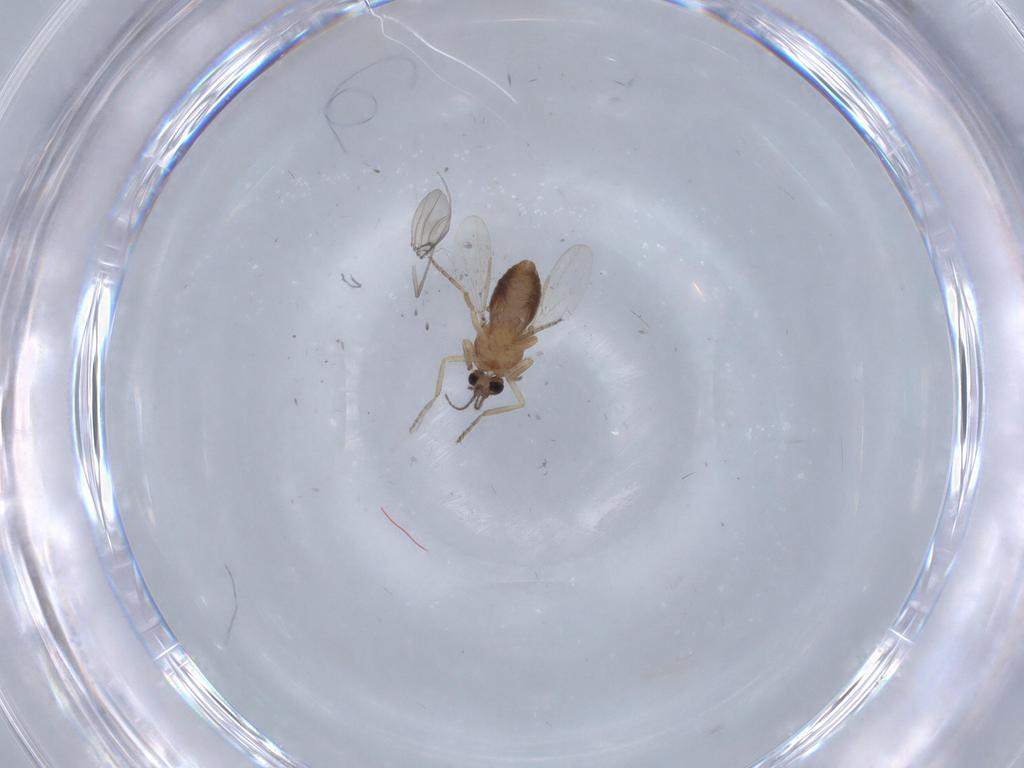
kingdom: Animalia
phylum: Arthropoda
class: Insecta
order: Diptera
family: Ceratopogonidae
